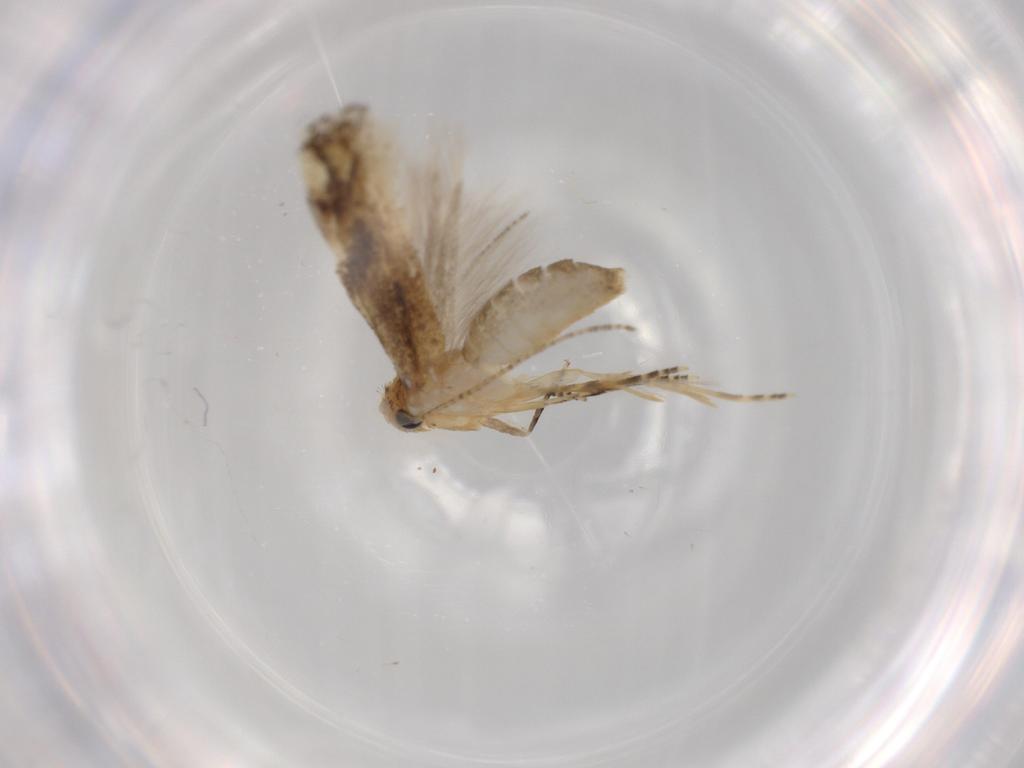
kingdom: Animalia
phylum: Arthropoda
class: Insecta
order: Lepidoptera
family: Bucculatricidae
